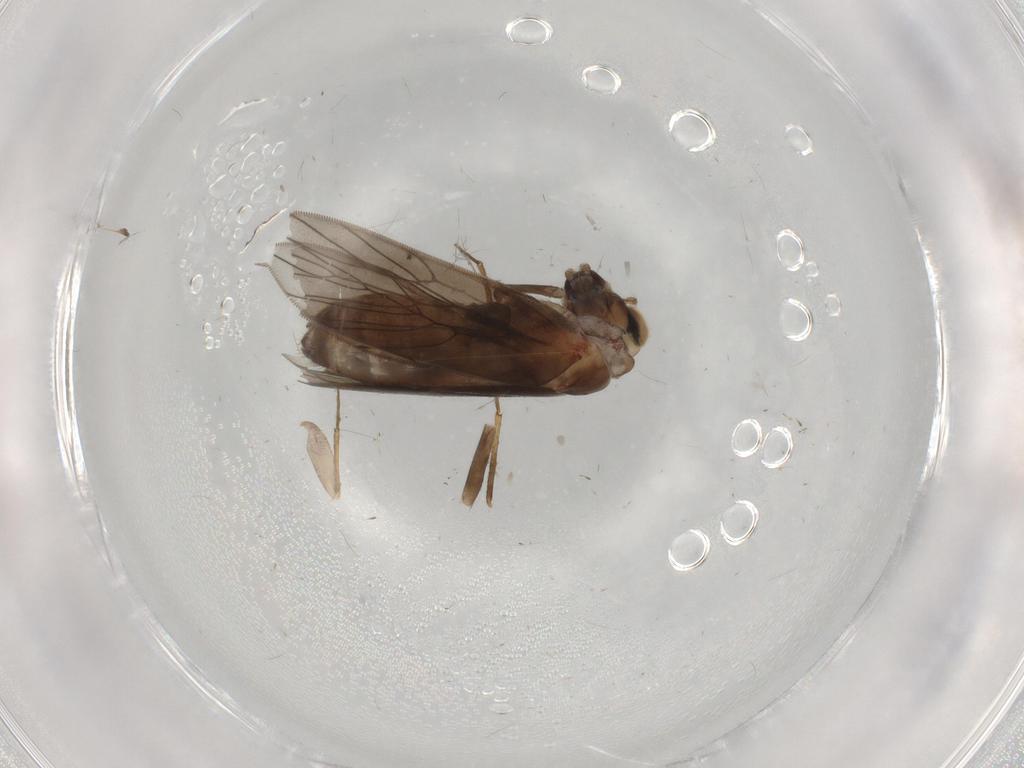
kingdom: Animalia
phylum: Arthropoda
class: Insecta
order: Psocodea
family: Lepidopsocidae
